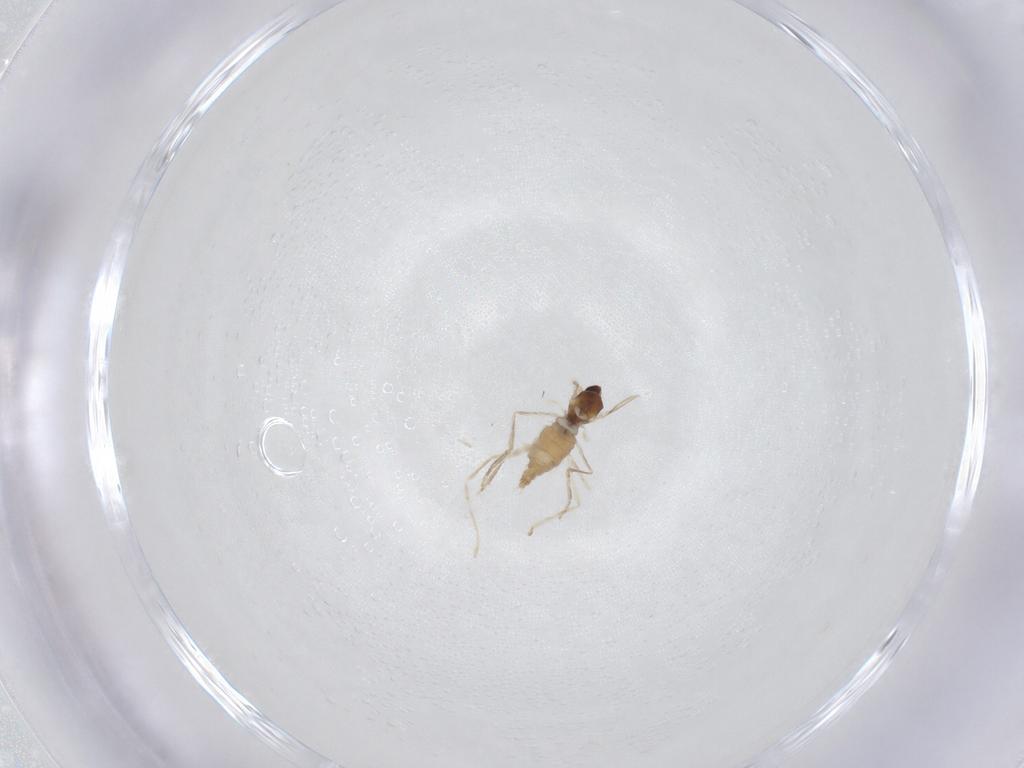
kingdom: Animalia
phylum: Arthropoda
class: Insecta
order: Diptera
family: Syrphidae
